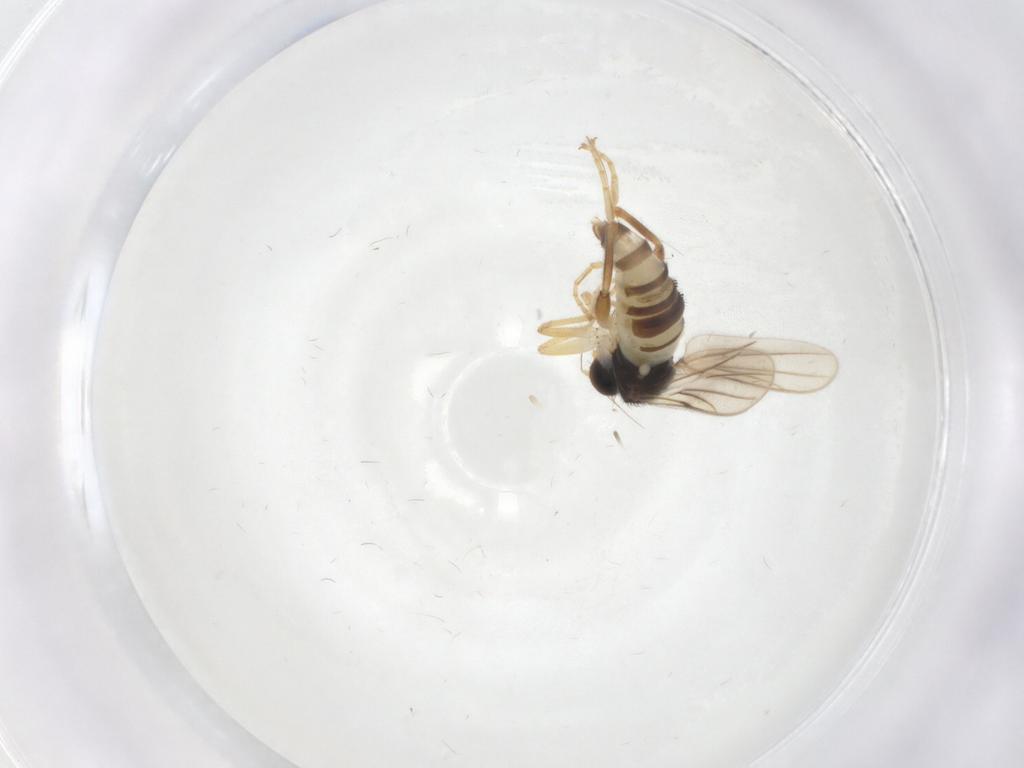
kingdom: Animalia
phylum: Arthropoda
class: Insecta
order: Diptera
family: Hybotidae
